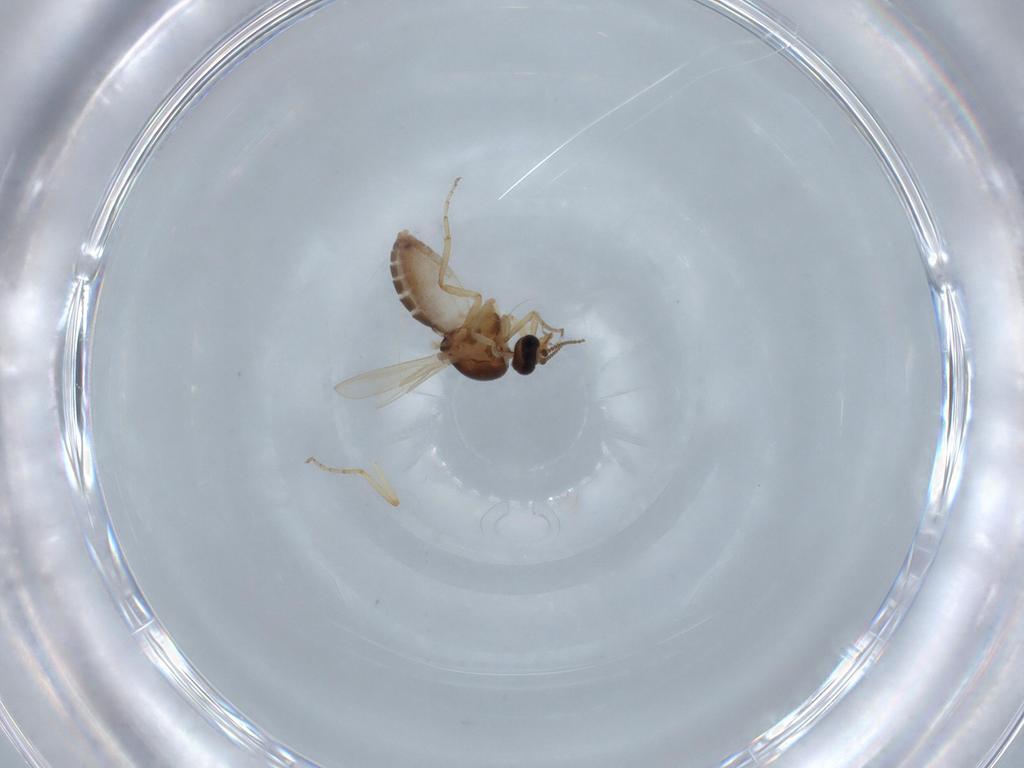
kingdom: Animalia
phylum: Arthropoda
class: Insecta
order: Diptera
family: Ceratopogonidae
